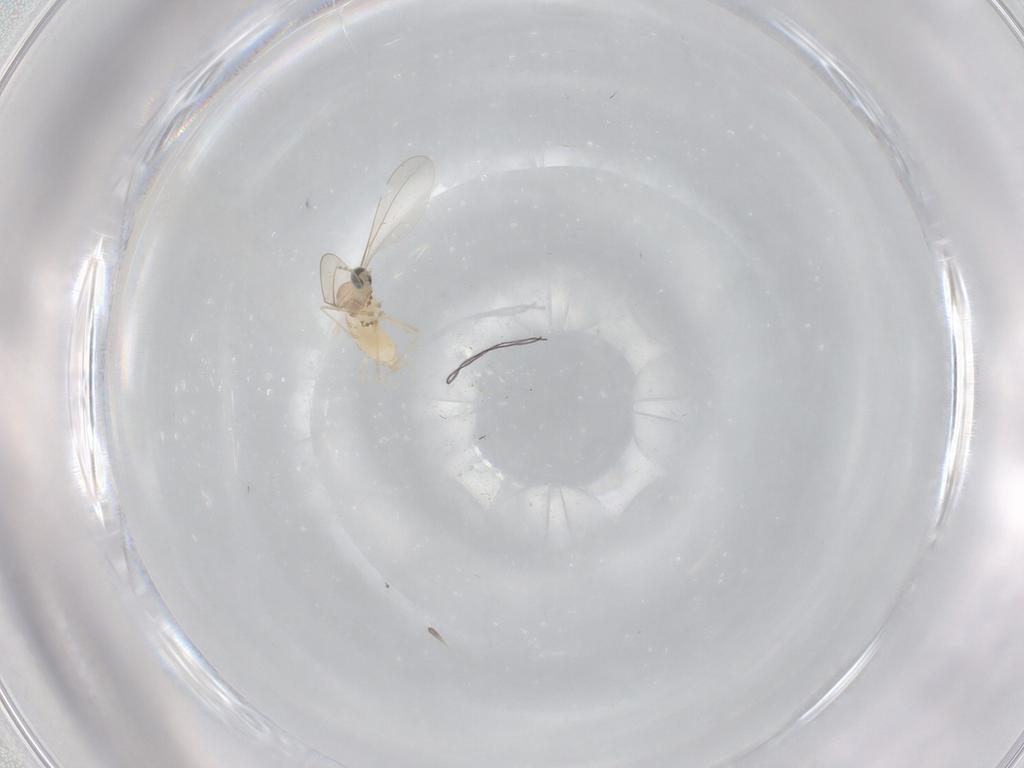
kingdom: Animalia
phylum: Arthropoda
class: Insecta
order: Diptera
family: Cecidomyiidae
